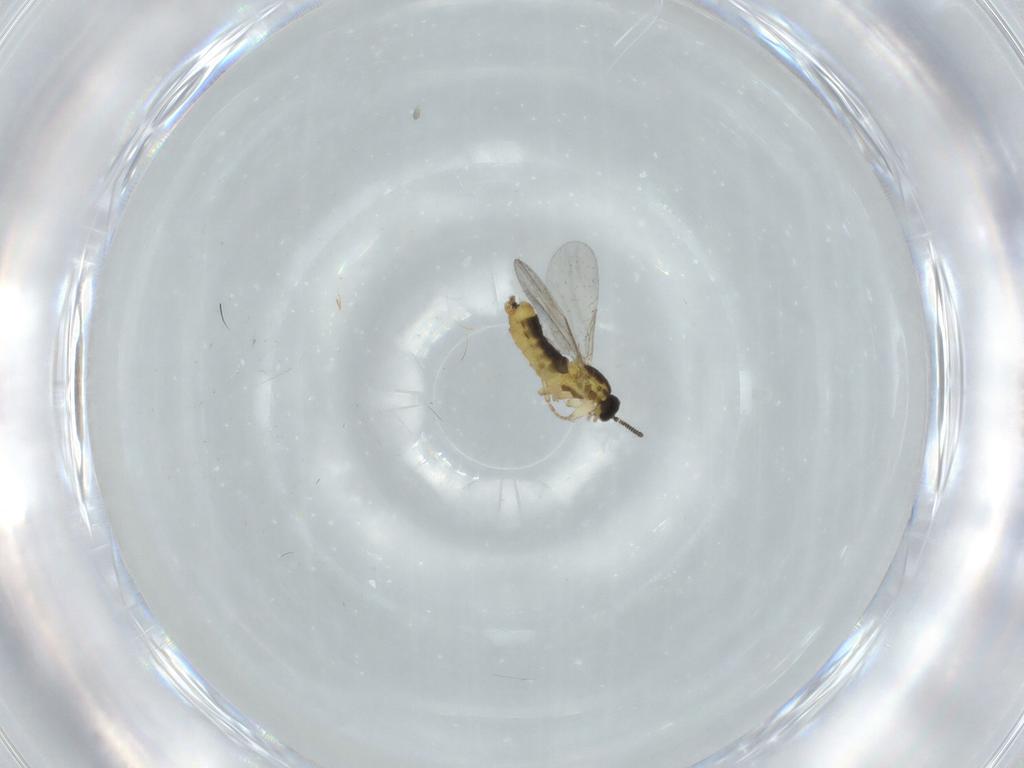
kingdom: Animalia
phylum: Arthropoda
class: Insecta
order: Diptera
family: Scatopsidae
